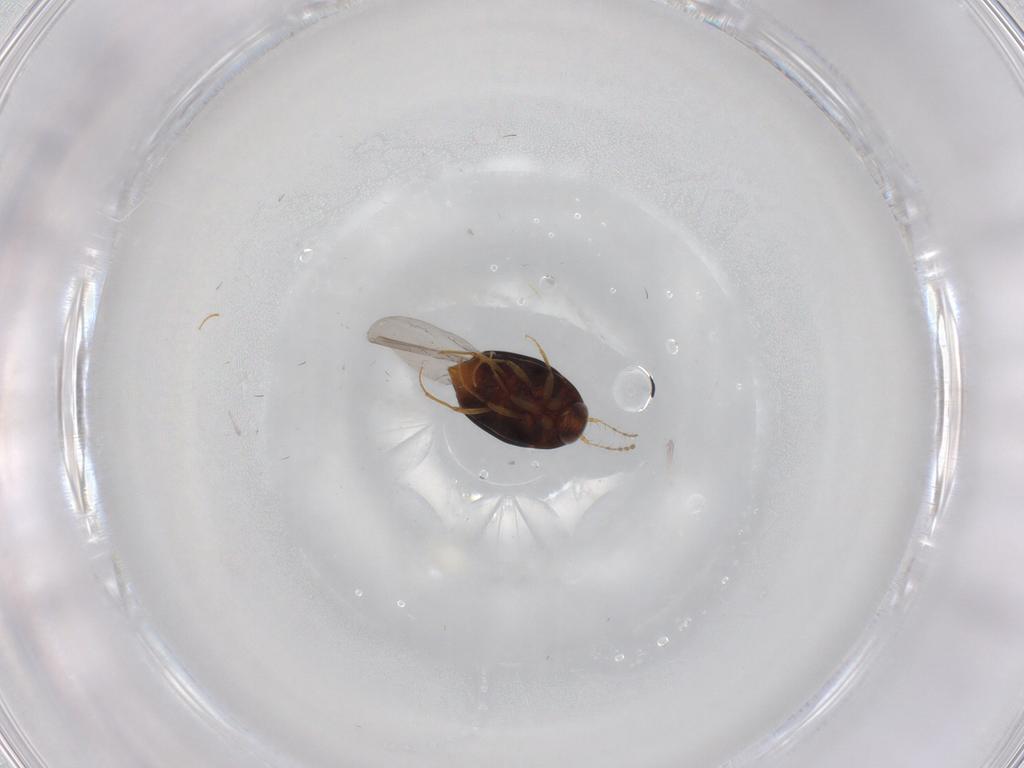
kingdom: Animalia
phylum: Arthropoda
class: Insecta
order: Coleoptera
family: Staphylinidae
